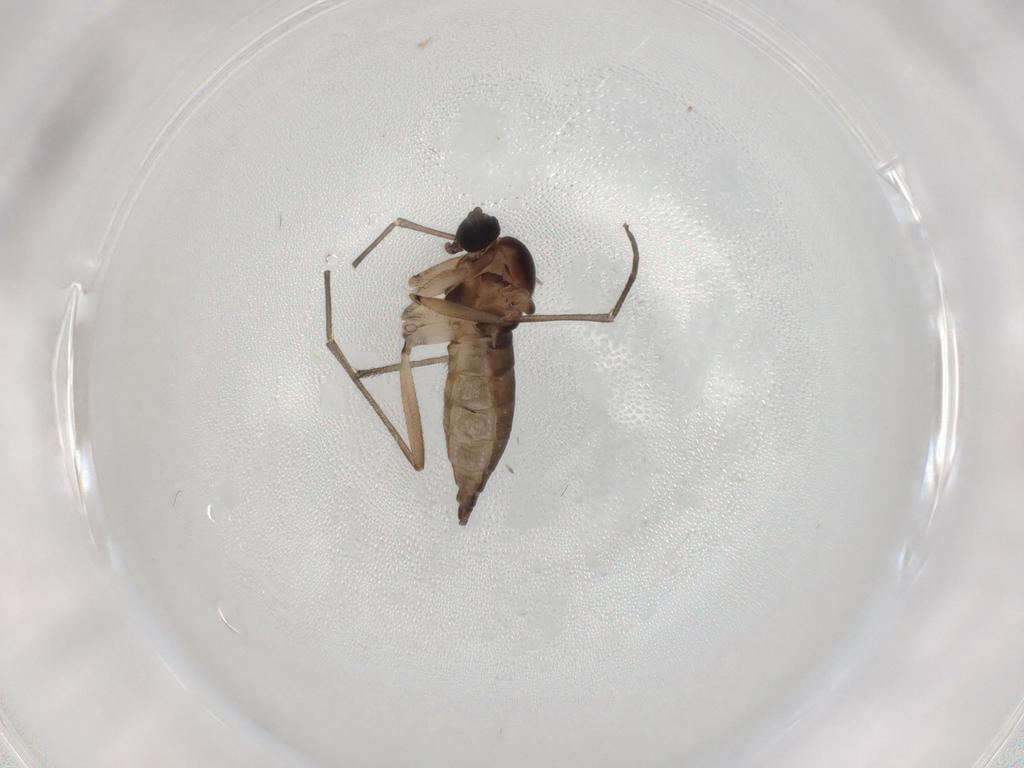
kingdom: Animalia
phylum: Arthropoda
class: Insecta
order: Diptera
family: Sciaridae
